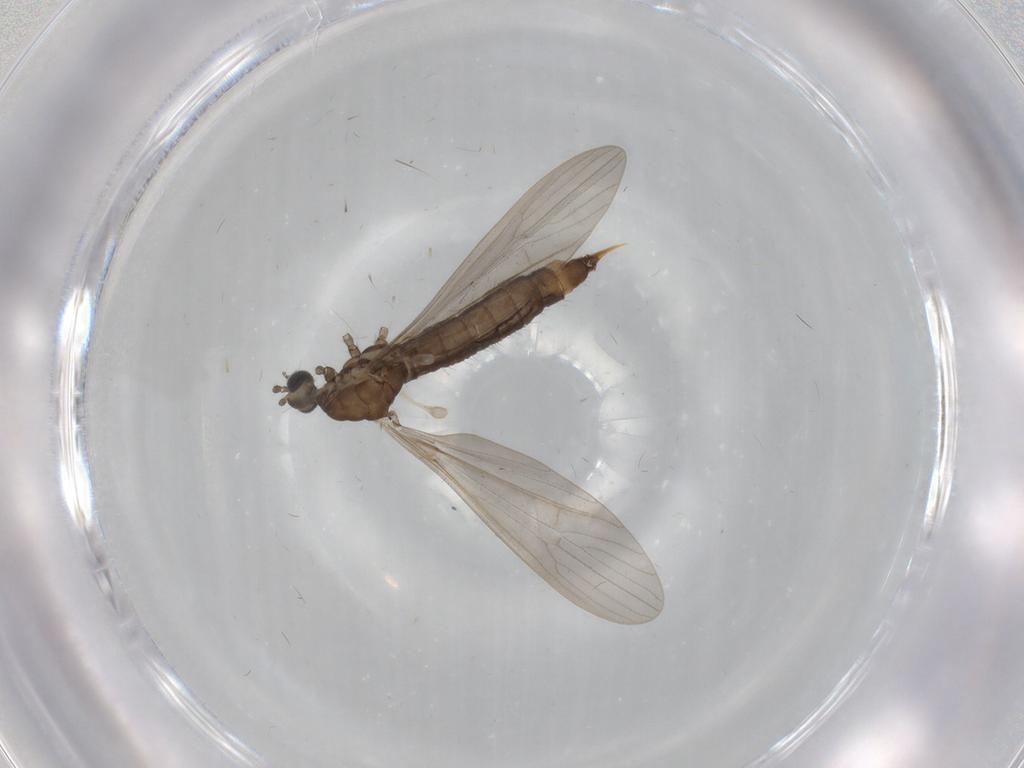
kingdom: Animalia
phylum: Arthropoda
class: Insecta
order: Diptera
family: Limoniidae
